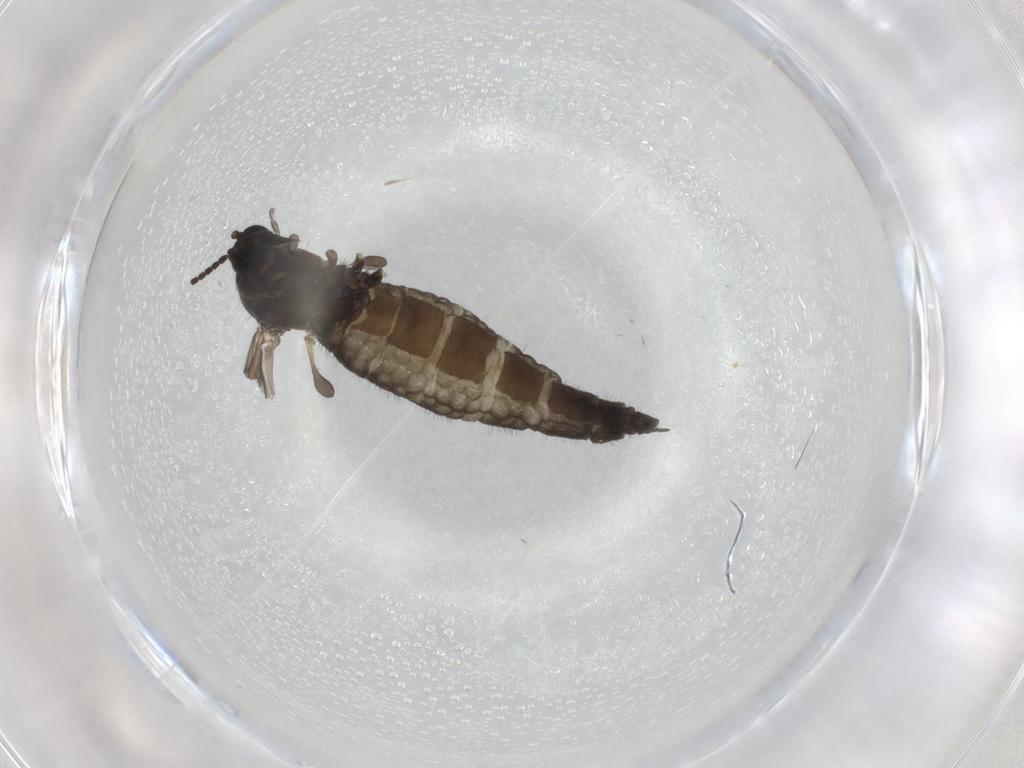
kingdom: Animalia
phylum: Arthropoda
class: Insecta
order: Diptera
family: Sciaridae
